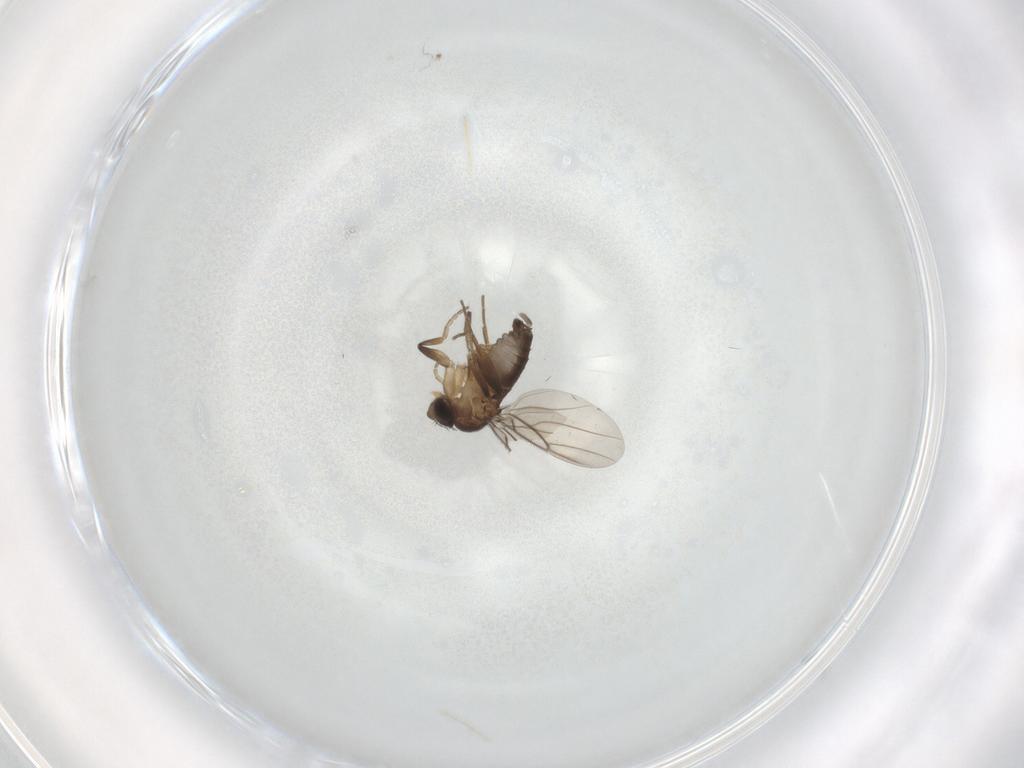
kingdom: Animalia
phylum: Arthropoda
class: Insecta
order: Diptera
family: Phoridae
